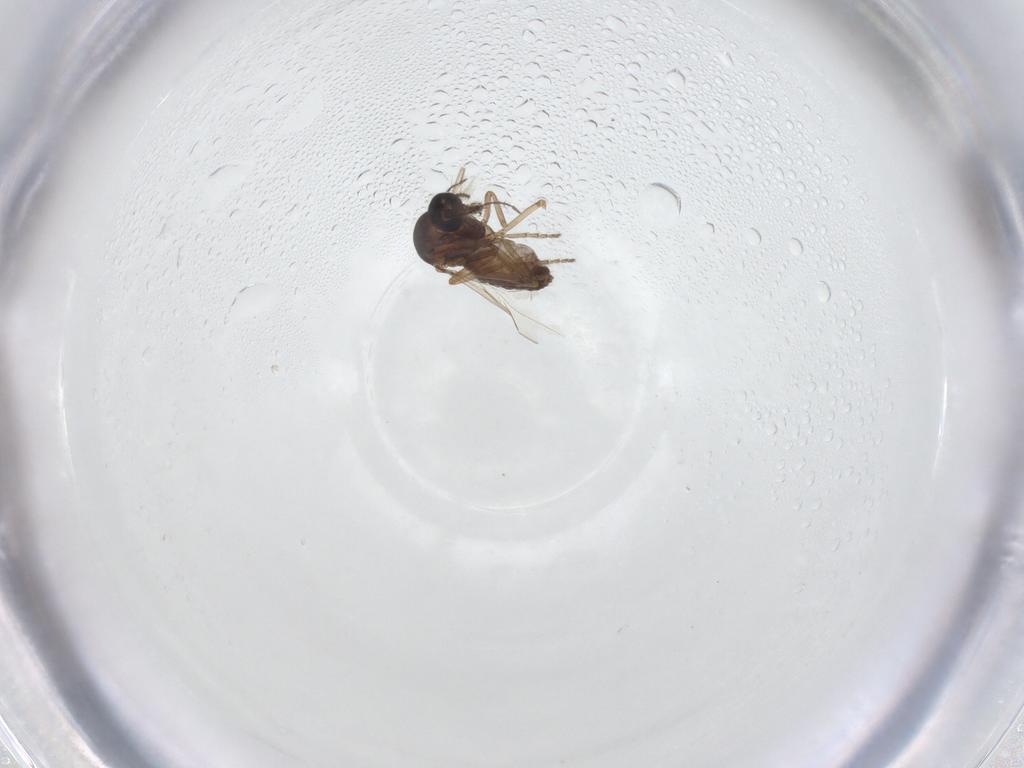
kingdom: Animalia
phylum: Arthropoda
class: Insecta
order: Diptera
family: Ceratopogonidae
